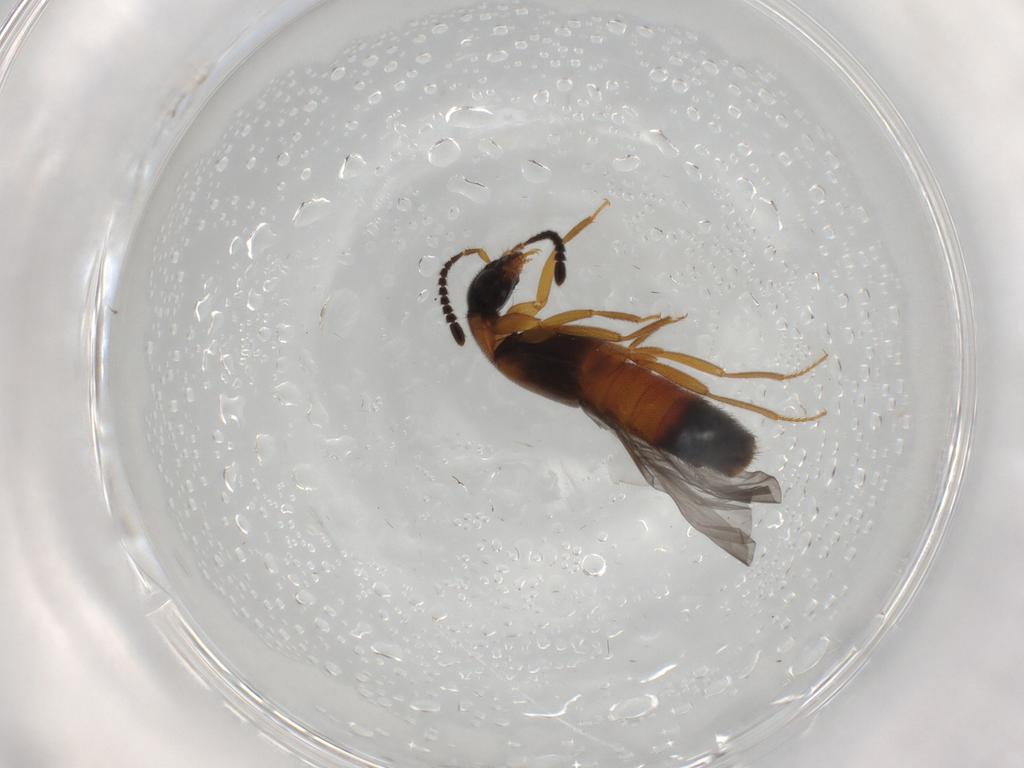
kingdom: Animalia
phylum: Arthropoda
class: Insecta
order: Coleoptera
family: Staphylinidae
